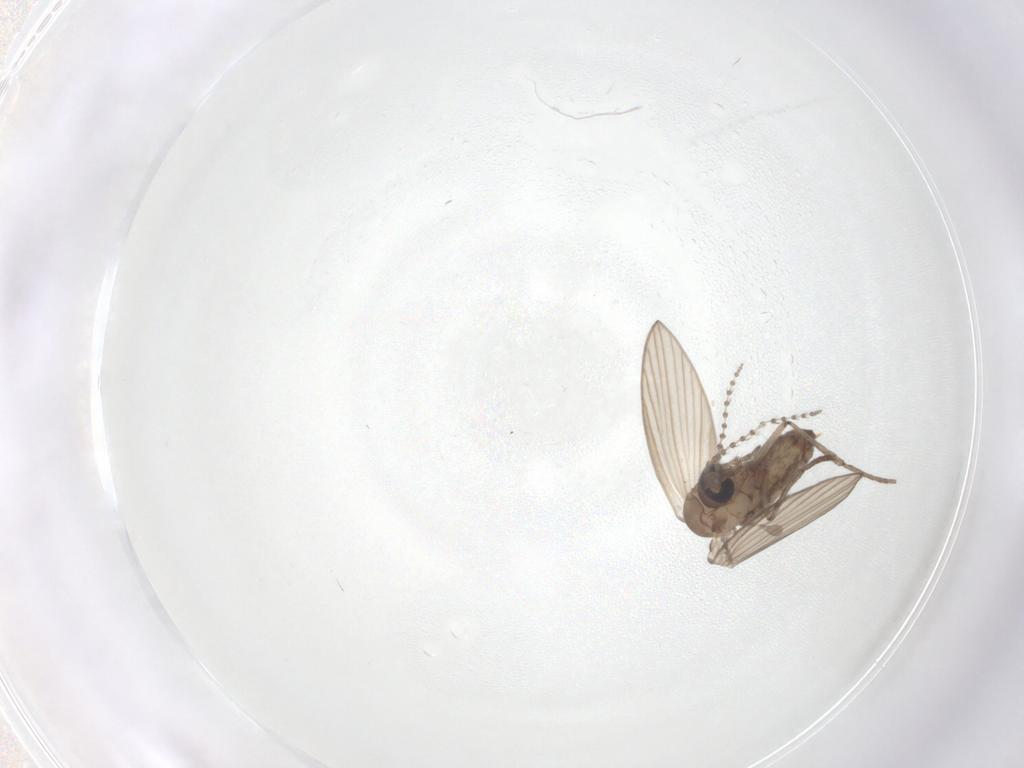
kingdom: Animalia
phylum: Arthropoda
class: Insecta
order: Diptera
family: Psychodidae
